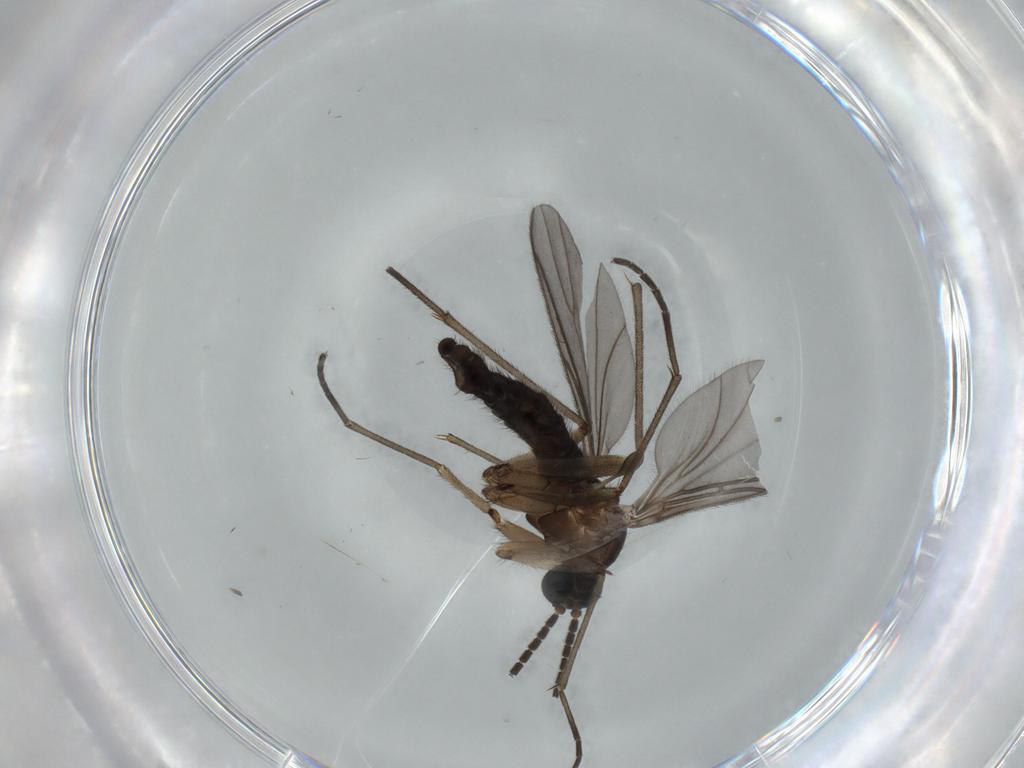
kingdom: Animalia
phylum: Arthropoda
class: Insecta
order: Diptera
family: Sciaridae
